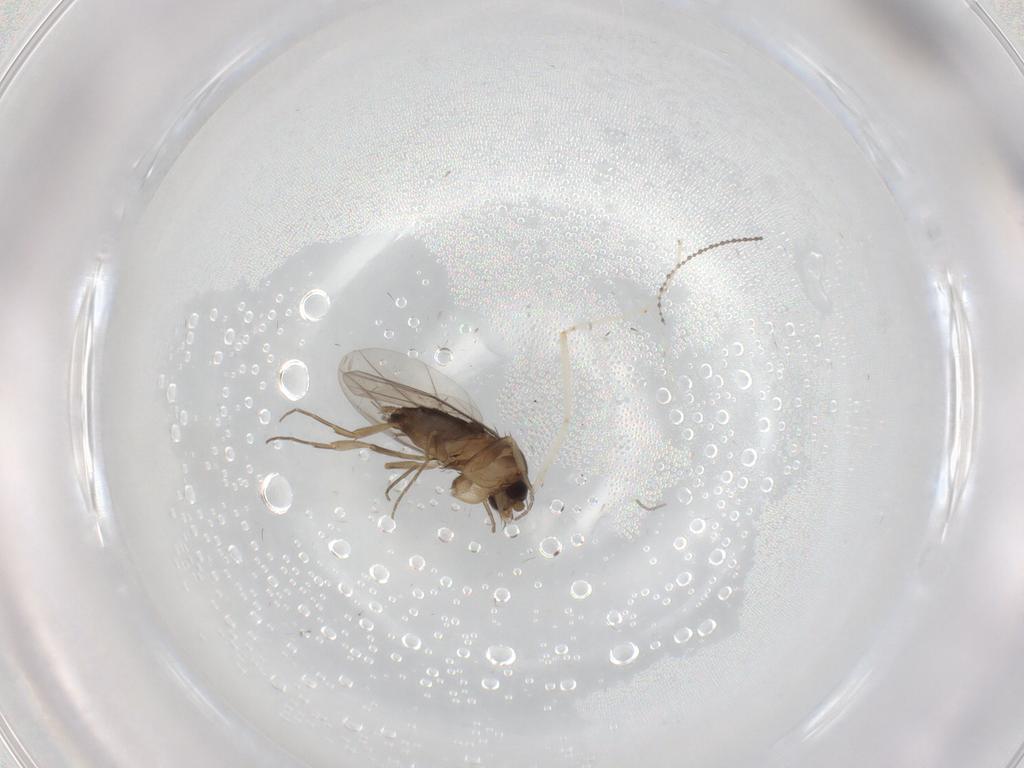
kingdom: Animalia
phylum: Arthropoda
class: Insecta
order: Diptera
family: Phoridae
